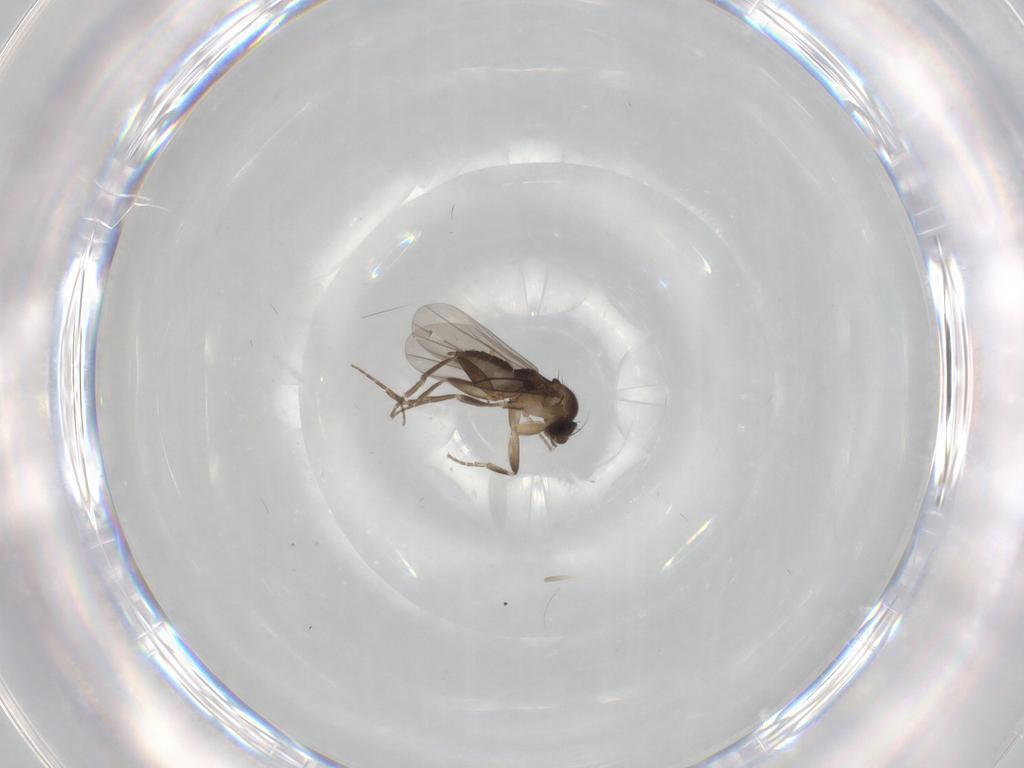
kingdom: Animalia
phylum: Arthropoda
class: Insecta
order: Diptera
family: Phoridae
